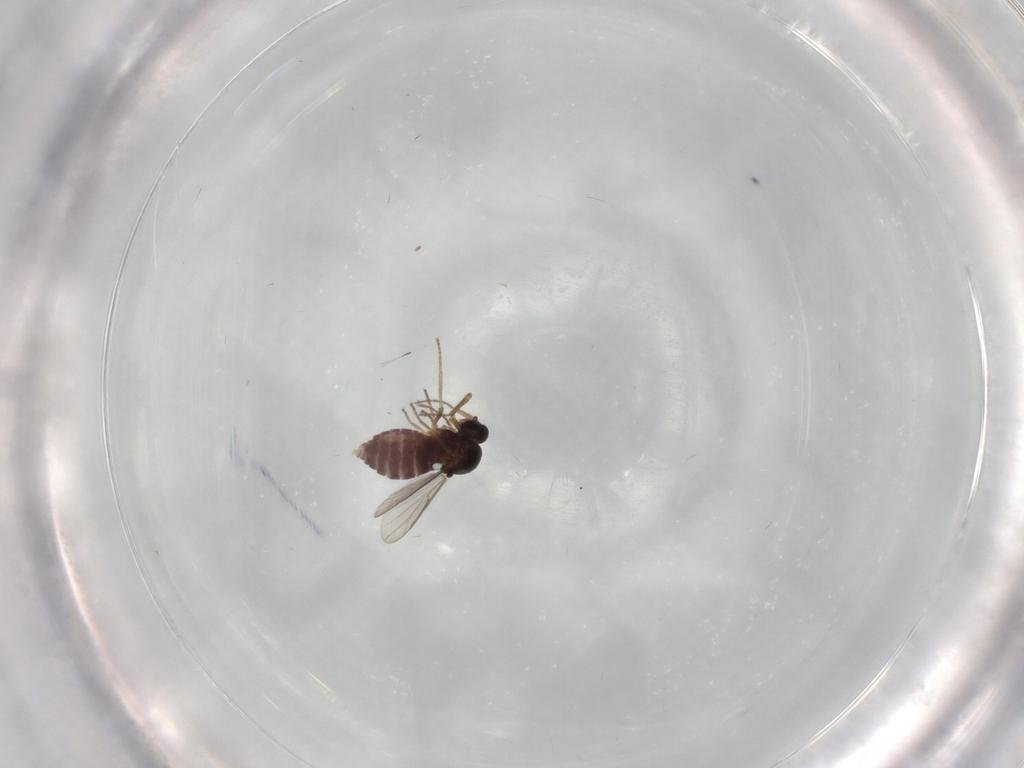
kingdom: Animalia
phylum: Arthropoda
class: Insecta
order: Diptera
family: Ceratopogonidae
